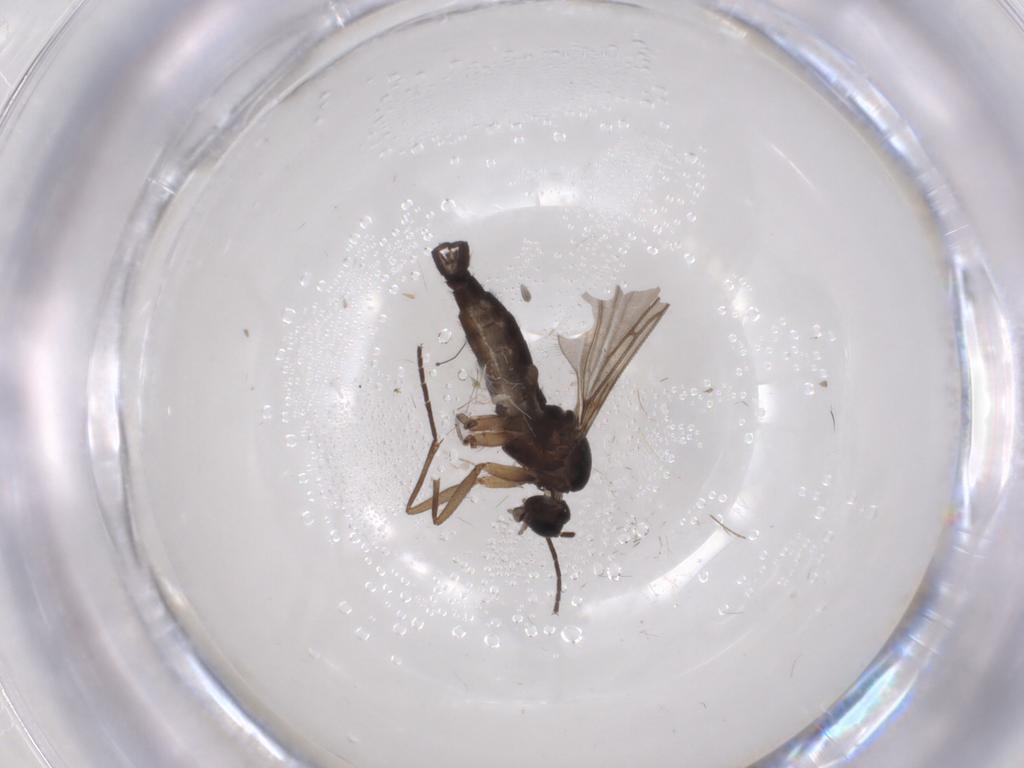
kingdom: Animalia
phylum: Arthropoda
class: Insecta
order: Diptera
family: Sciaridae
